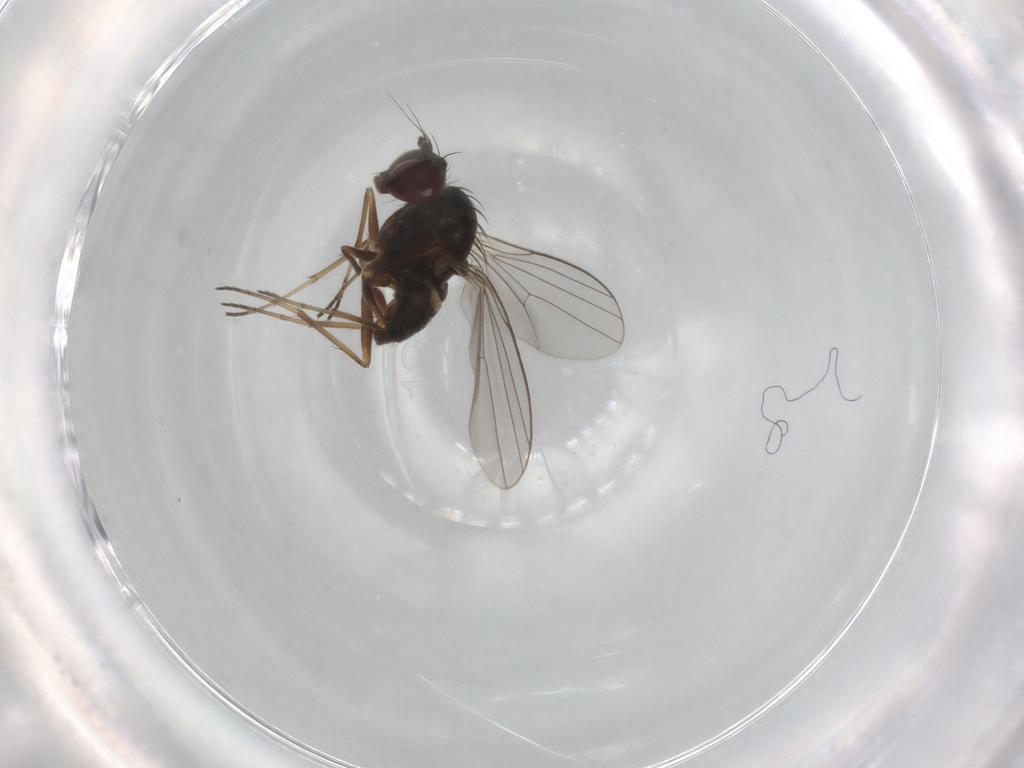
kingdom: Animalia
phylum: Arthropoda
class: Insecta
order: Diptera
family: Dolichopodidae
